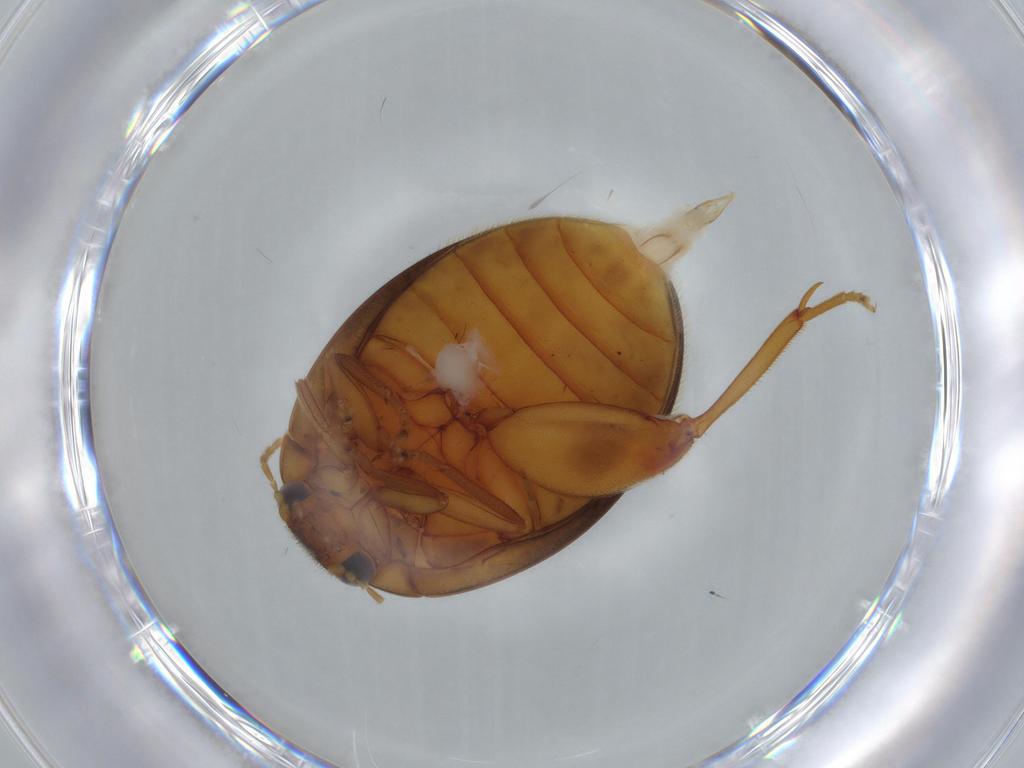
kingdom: Animalia
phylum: Arthropoda
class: Insecta
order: Coleoptera
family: Scirtidae
